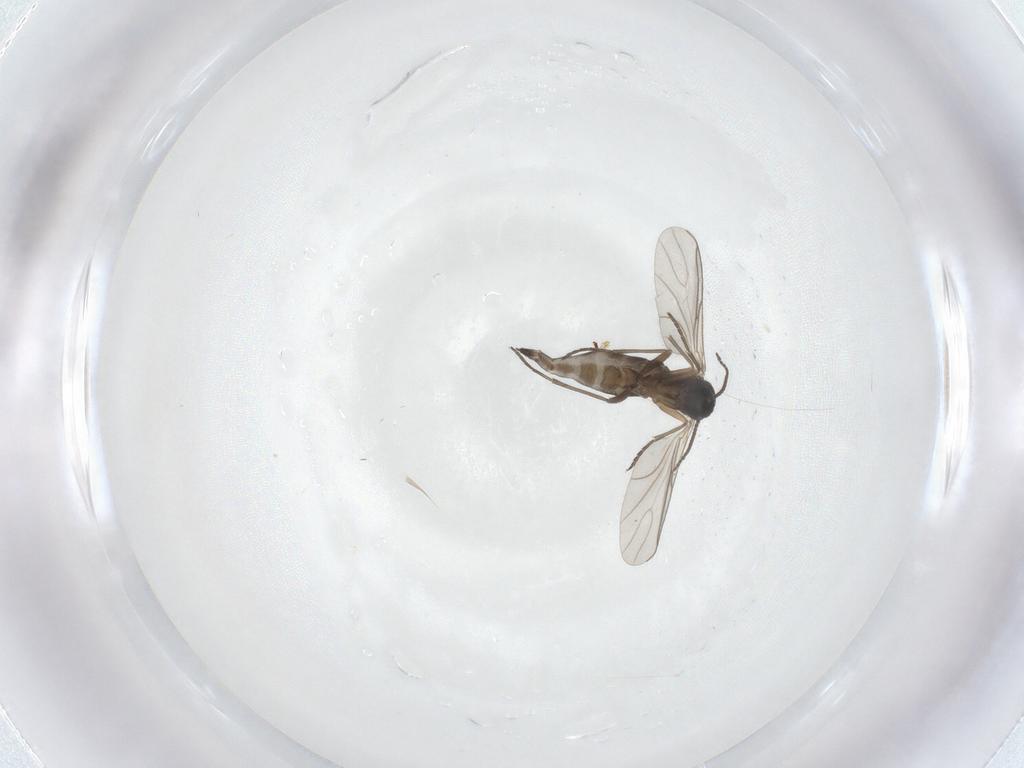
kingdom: Animalia
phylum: Arthropoda
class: Insecta
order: Diptera
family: Sciaridae
